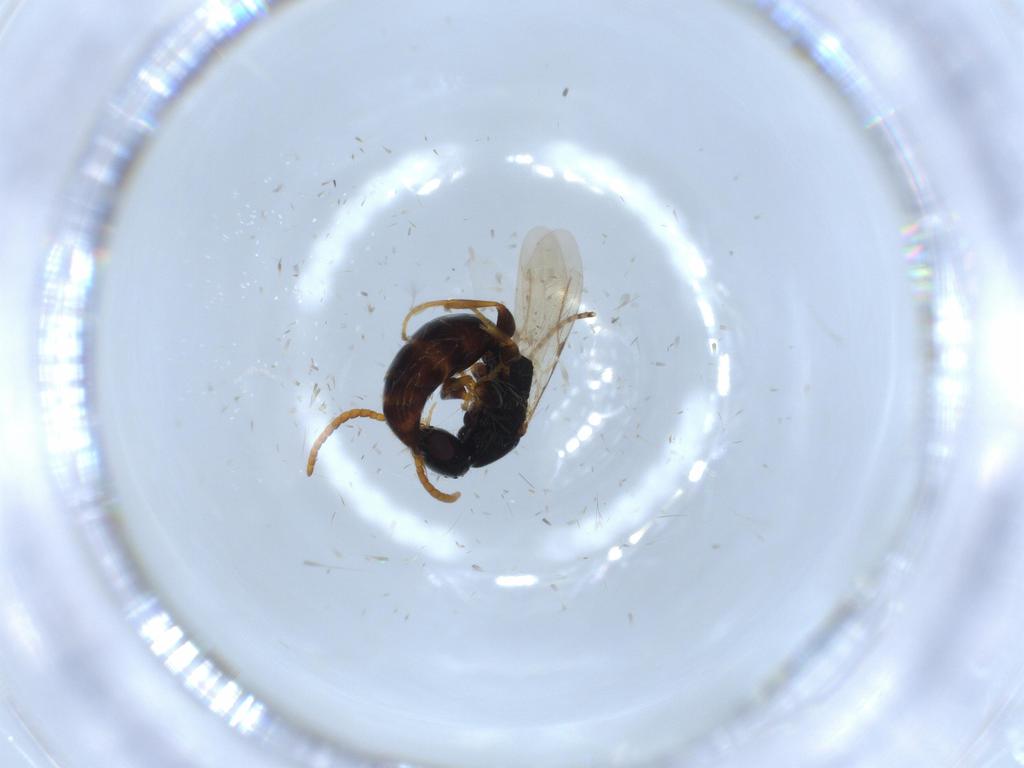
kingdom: Animalia
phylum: Arthropoda
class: Insecta
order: Hymenoptera
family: Bethylidae
